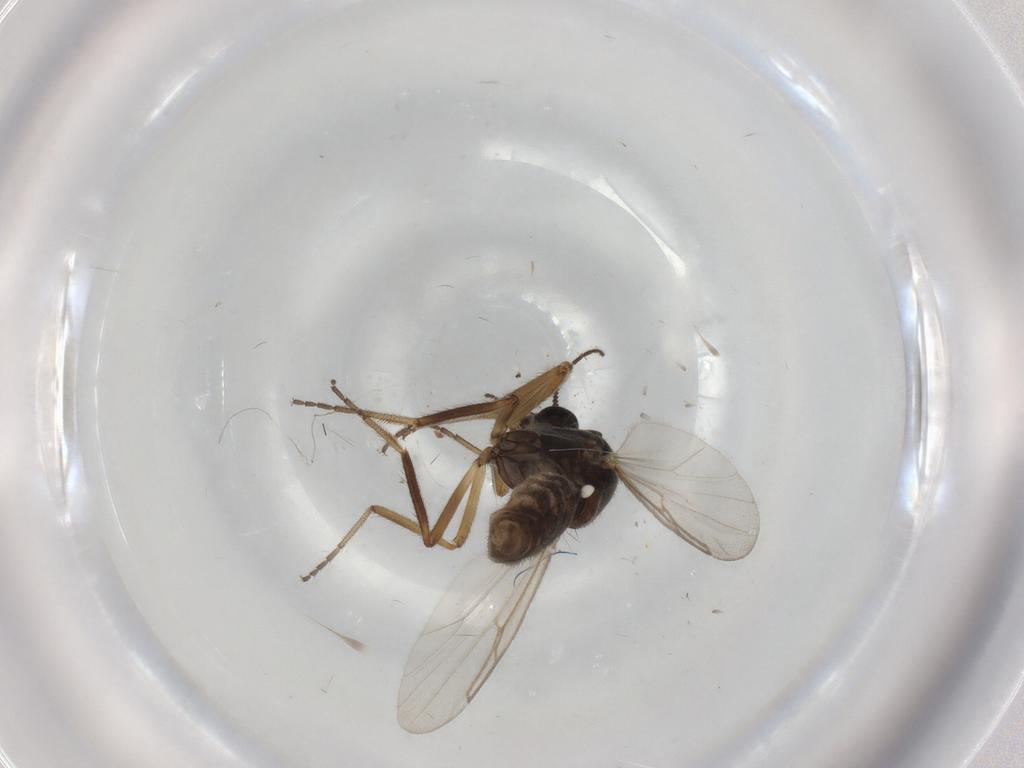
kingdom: Animalia
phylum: Arthropoda
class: Insecta
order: Diptera
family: Ceratopogonidae
